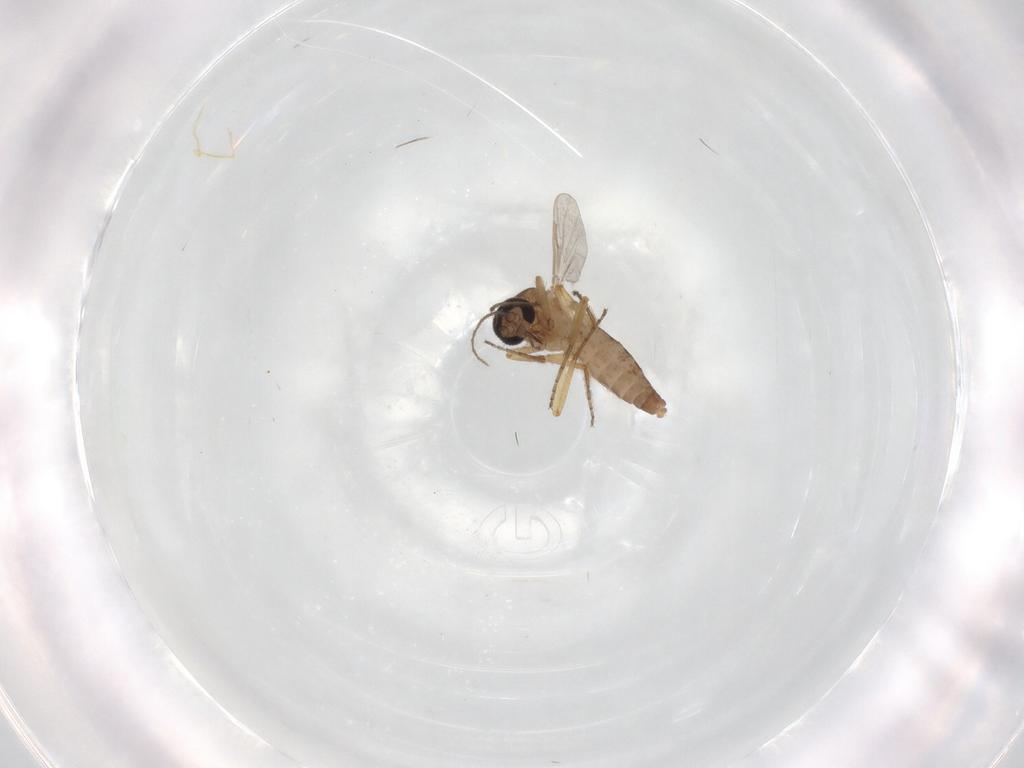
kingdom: Animalia
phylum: Arthropoda
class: Insecta
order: Diptera
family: Ceratopogonidae
